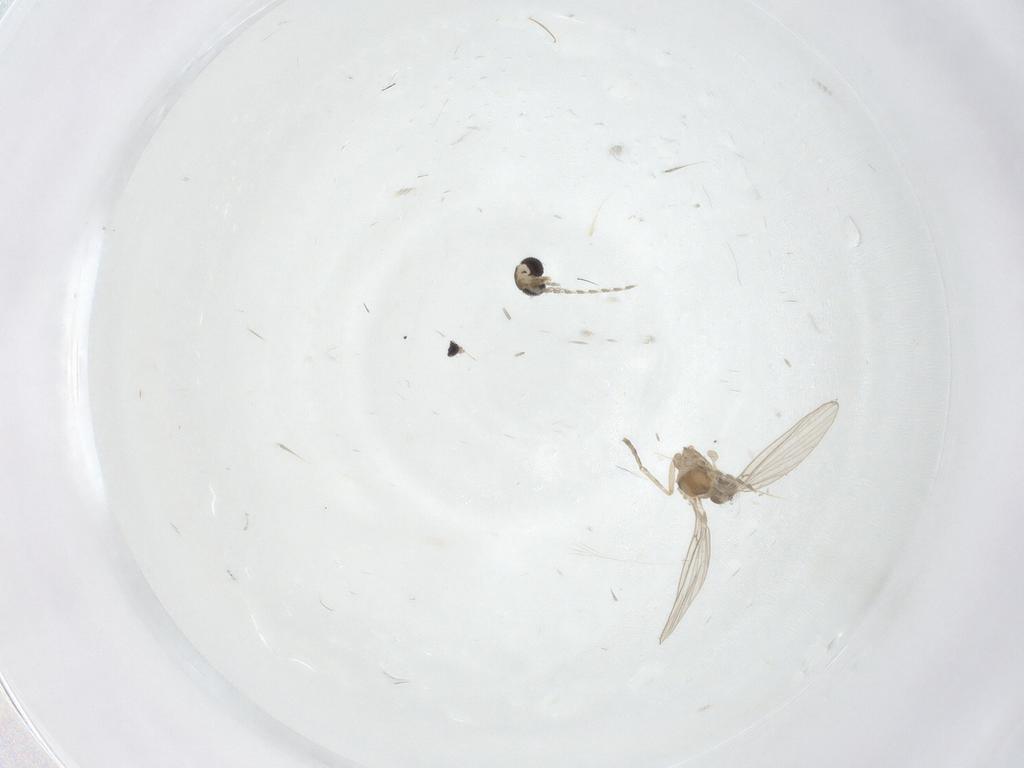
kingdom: Animalia
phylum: Arthropoda
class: Insecta
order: Diptera
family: Psychodidae
